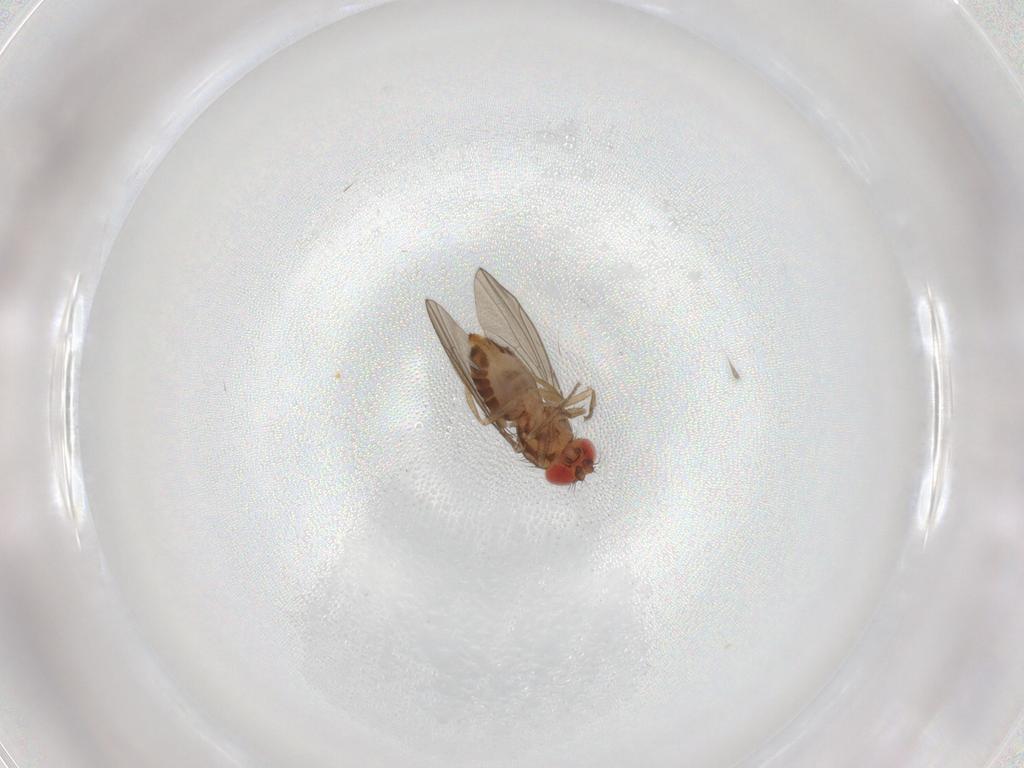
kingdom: Animalia
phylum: Arthropoda
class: Insecta
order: Diptera
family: Drosophilidae
